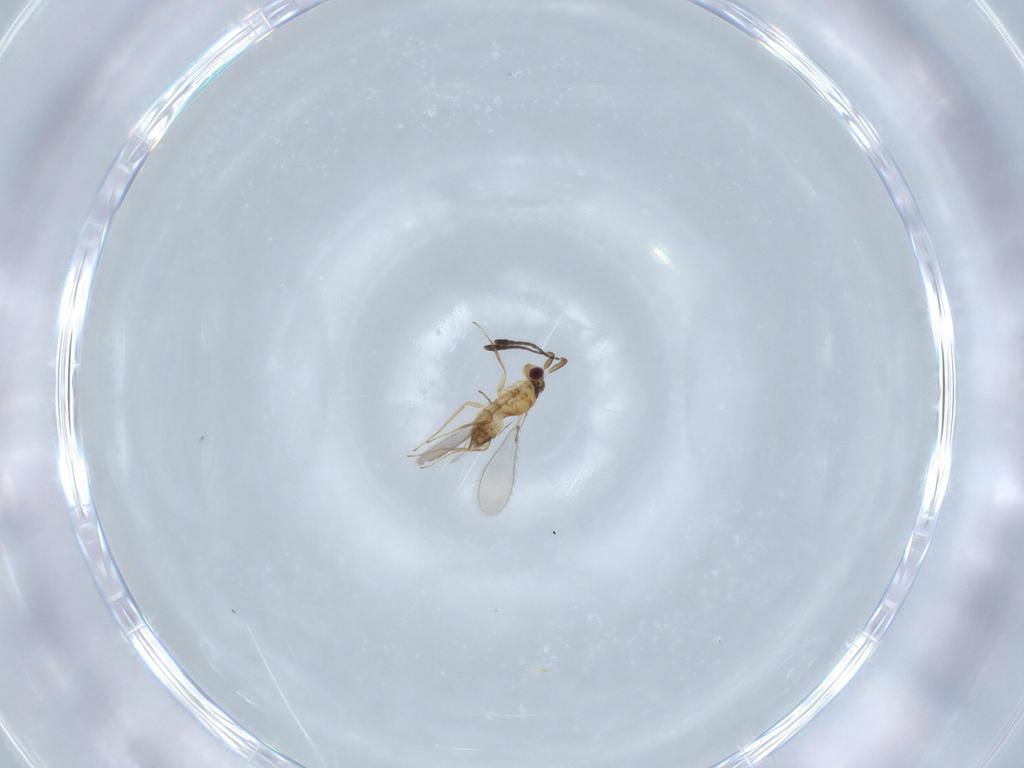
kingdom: Animalia
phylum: Arthropoda
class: Insecta
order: Hymenoptera
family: Mymaridae
